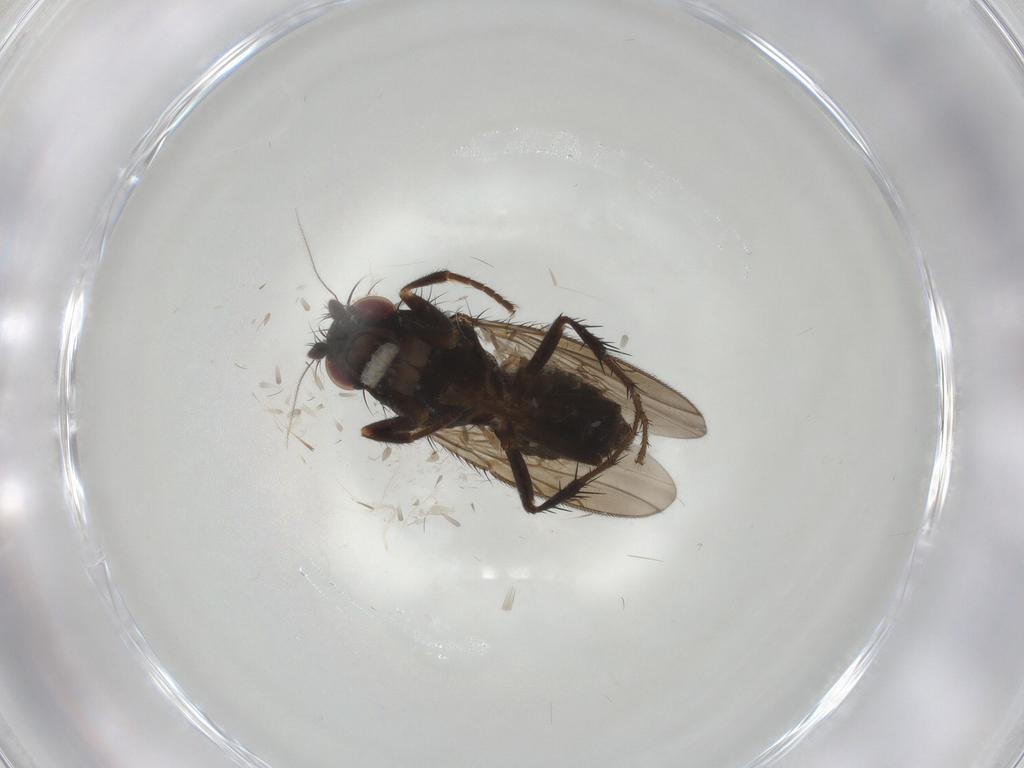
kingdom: Animalia
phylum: Arthropoda
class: Insecta
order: Diptera
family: Sphaeroceridae
